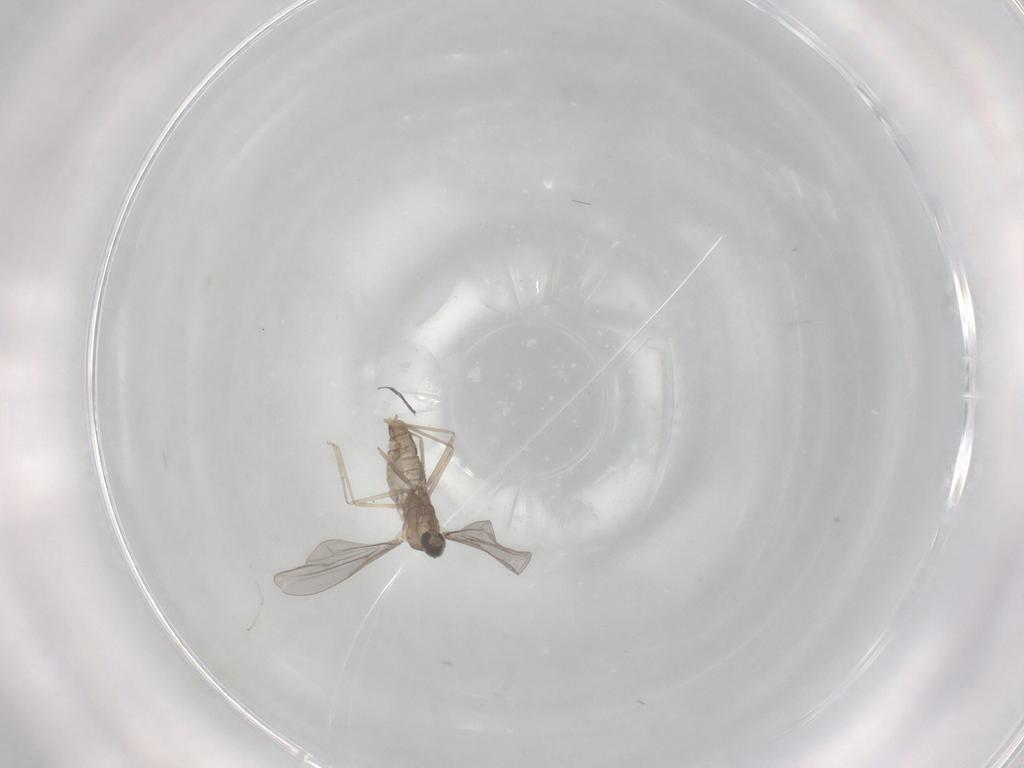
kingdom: Animalia
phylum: Arthropoda
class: Insecta
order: Diptera
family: Cecidomyiidae
